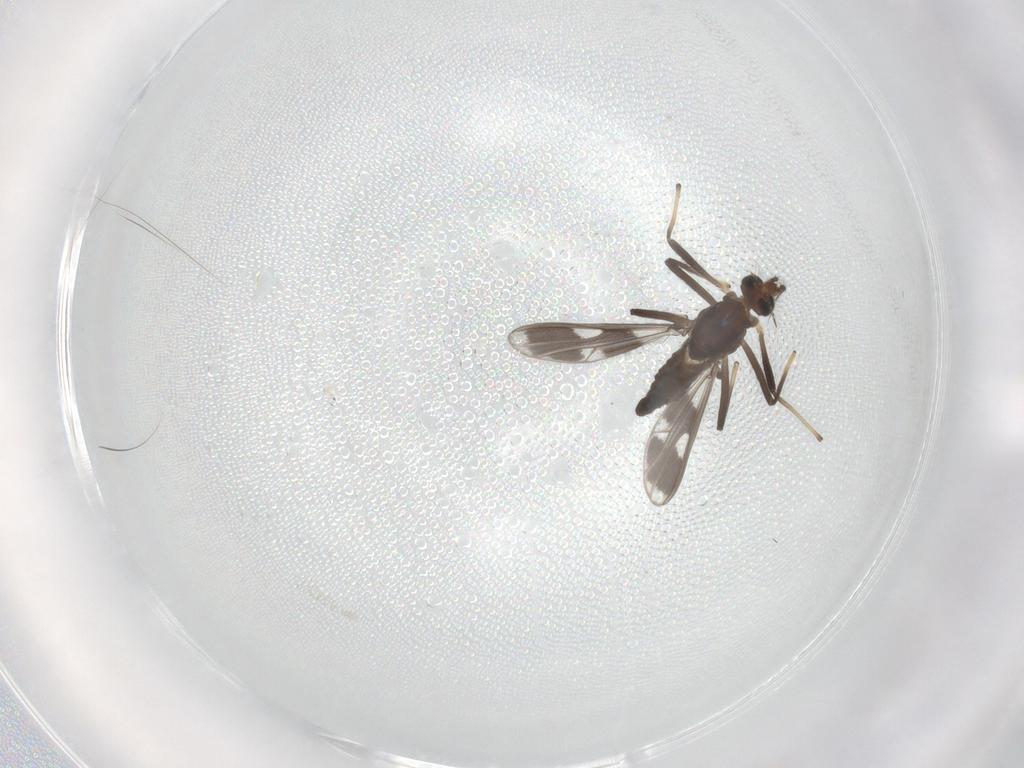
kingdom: Animalia
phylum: Arthropoda
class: Insecta
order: Diptera
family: Chironomidae
